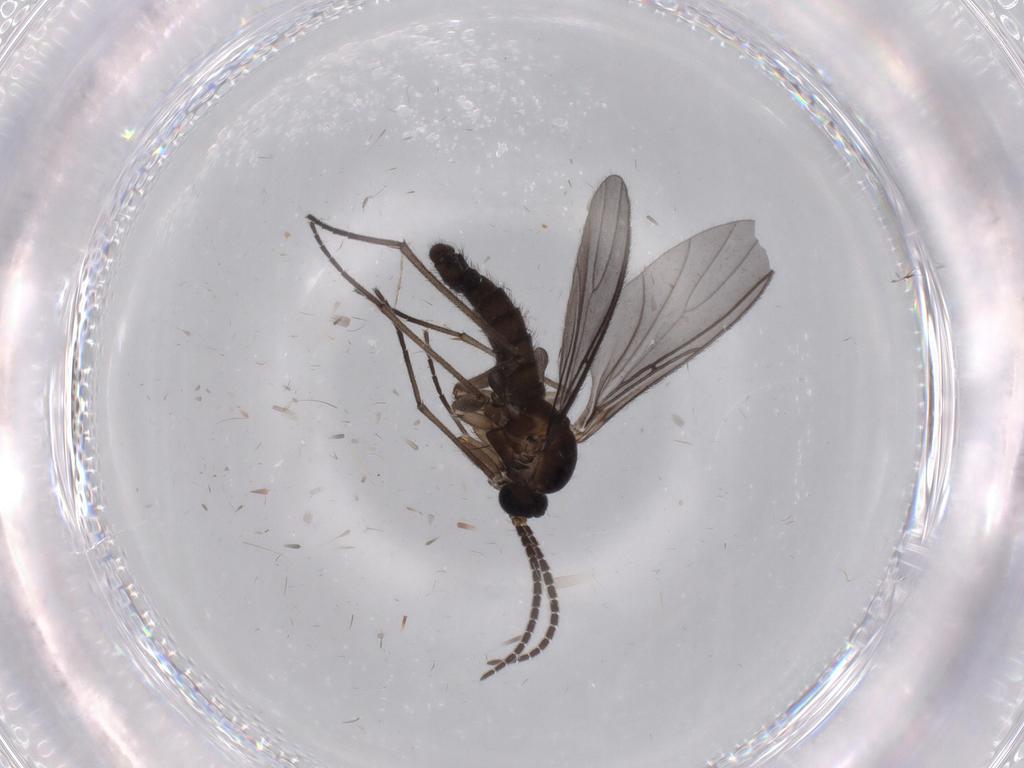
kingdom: Animalia
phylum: Arthropoda
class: Insecta
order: Diptera
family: Sciaridae
